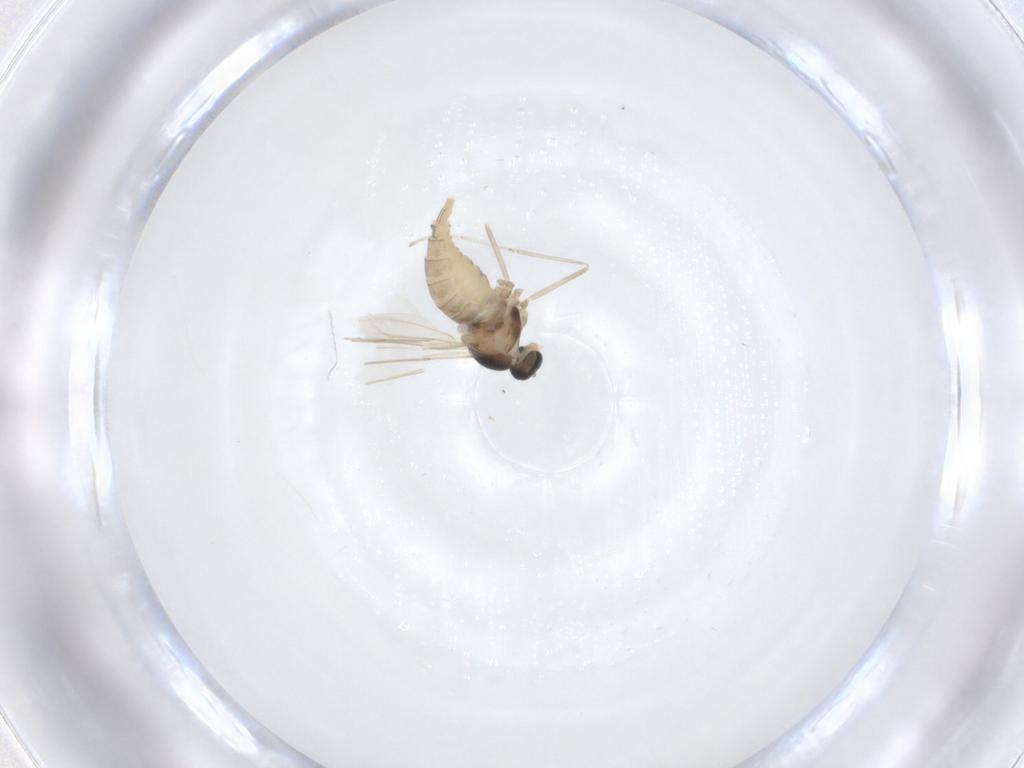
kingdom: Animalia
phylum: Arthropoda
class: Insecta
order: Diptera
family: Cecidomyiidae
